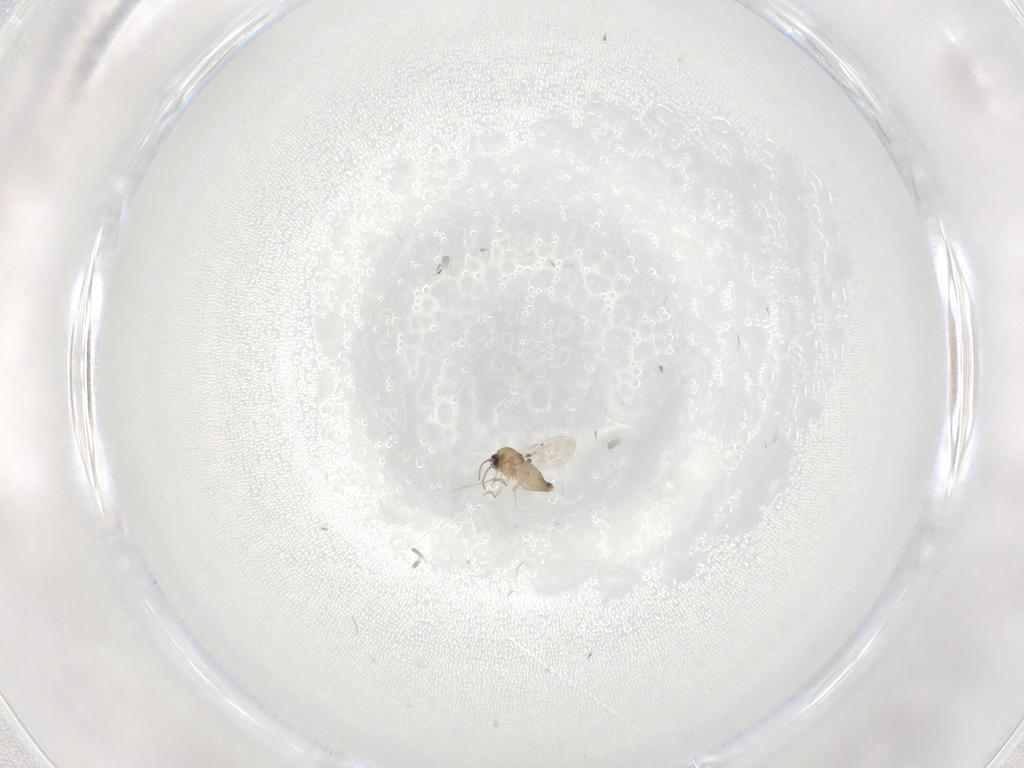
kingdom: Animalia
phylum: Arthropoda
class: Insecta
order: Diptera
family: Ceratopogonidae
